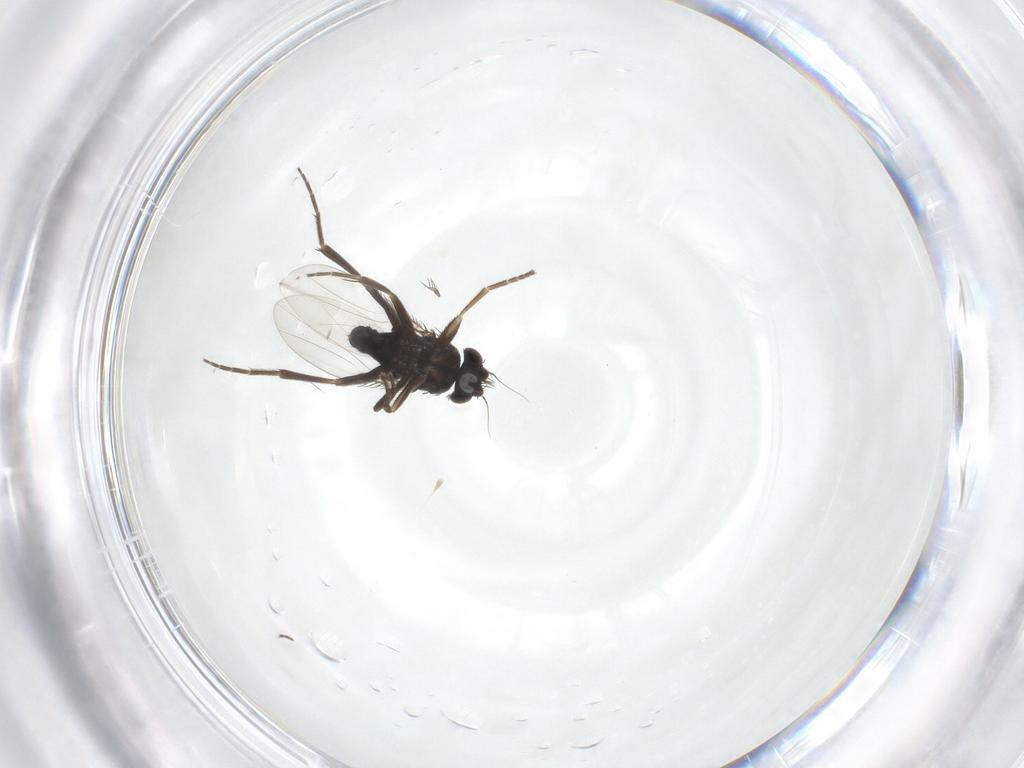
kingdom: Animalia
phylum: Arthropoda
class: Insecta
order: Diptera
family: Phoridae
